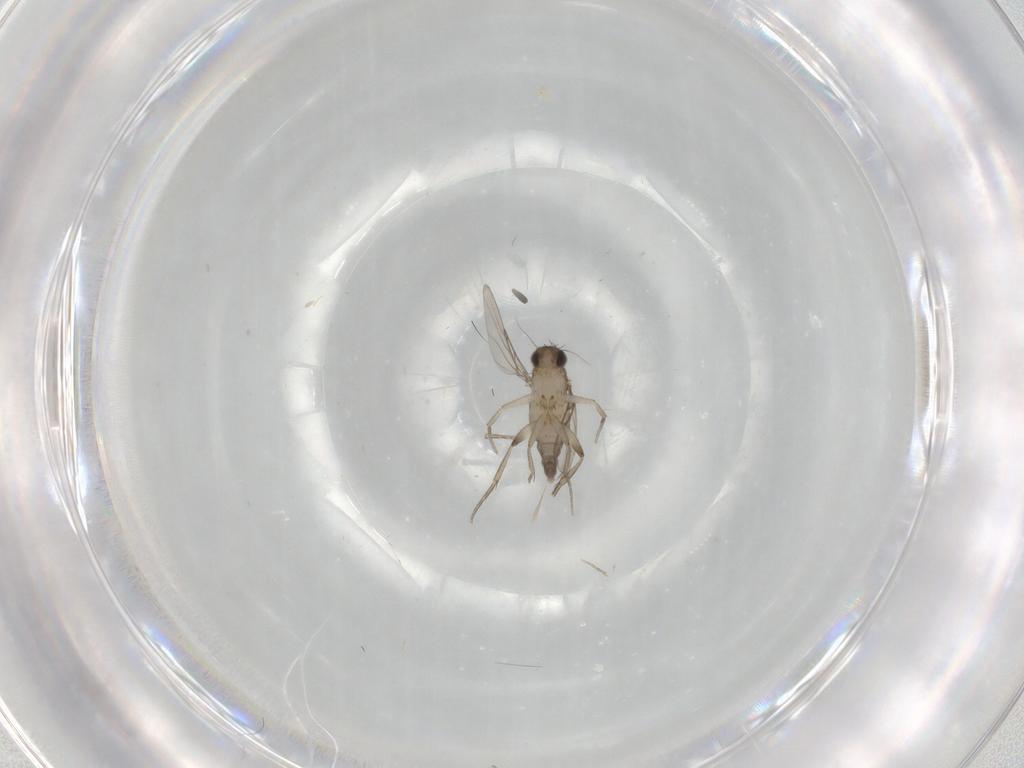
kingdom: Animalia
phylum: Arthropoda
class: Insecta
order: Diptera
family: Phoridae
